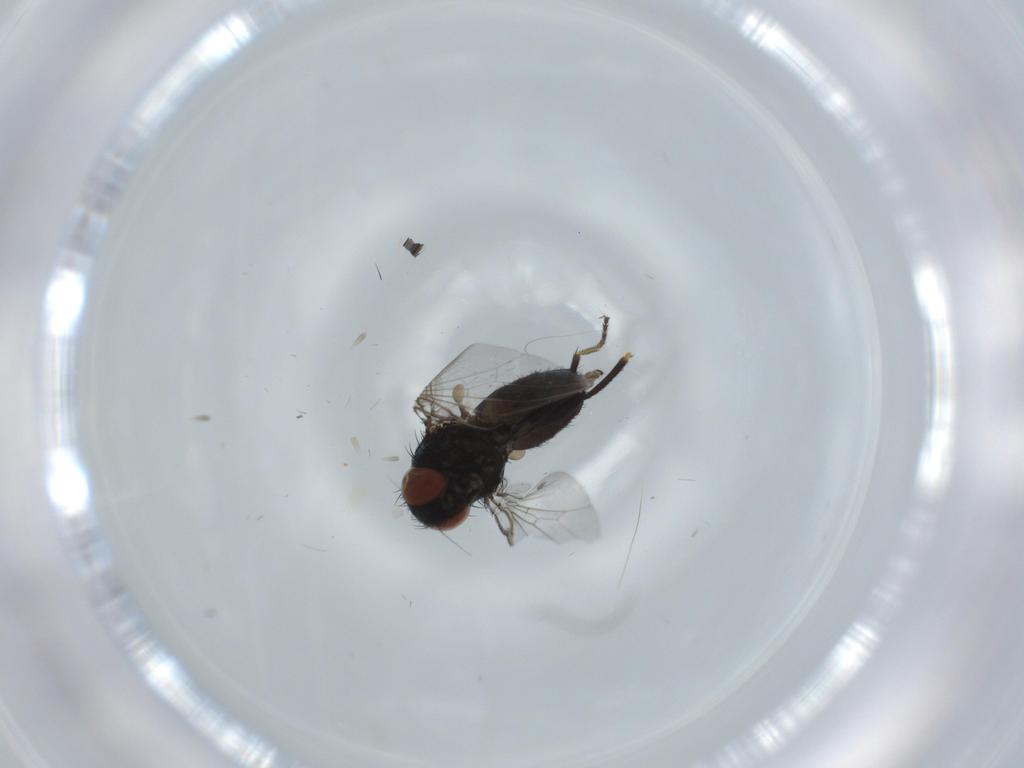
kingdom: Animalia
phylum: Arthropoda
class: Insecta
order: Diptera
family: Milichiidae
